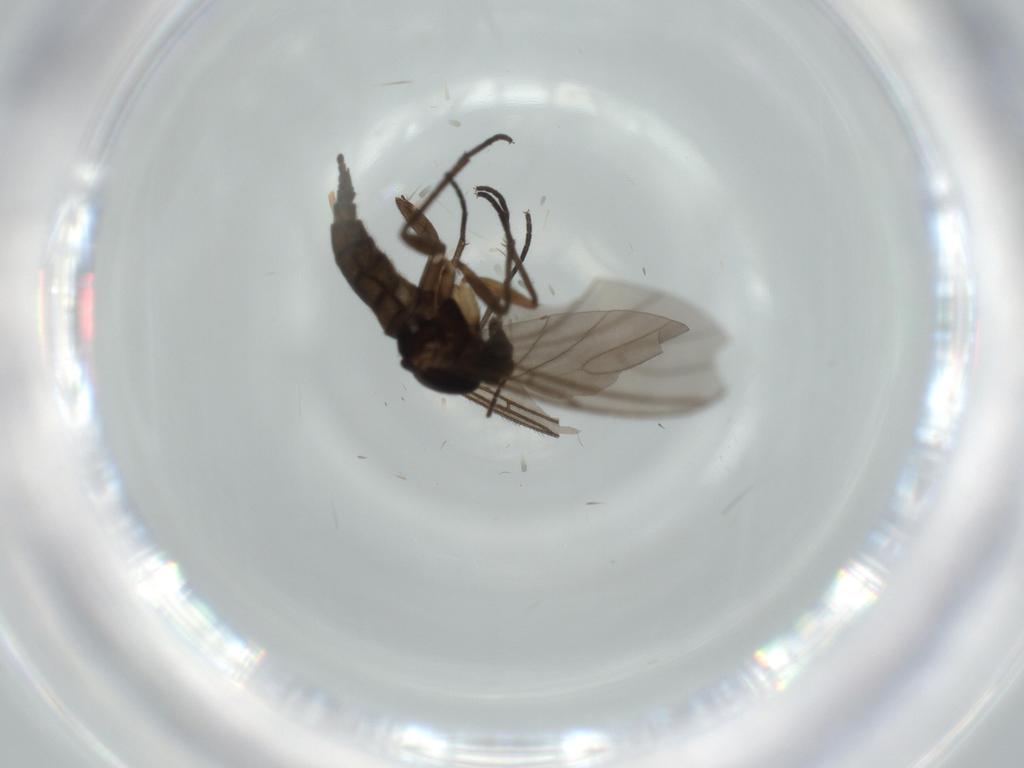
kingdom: Animalia
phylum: Arthropoda
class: Insecta
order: Diptera
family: Sciaridae
